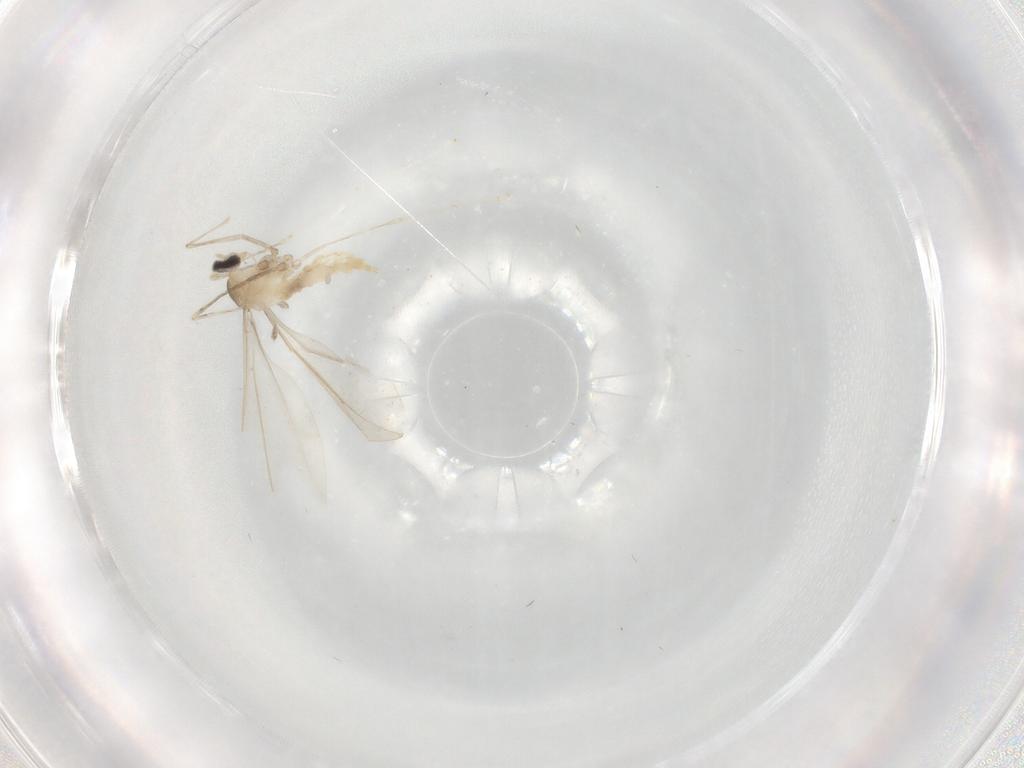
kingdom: Animalia
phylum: Arthropoda
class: Insecta
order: Diptera
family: Cecidomyiidae
